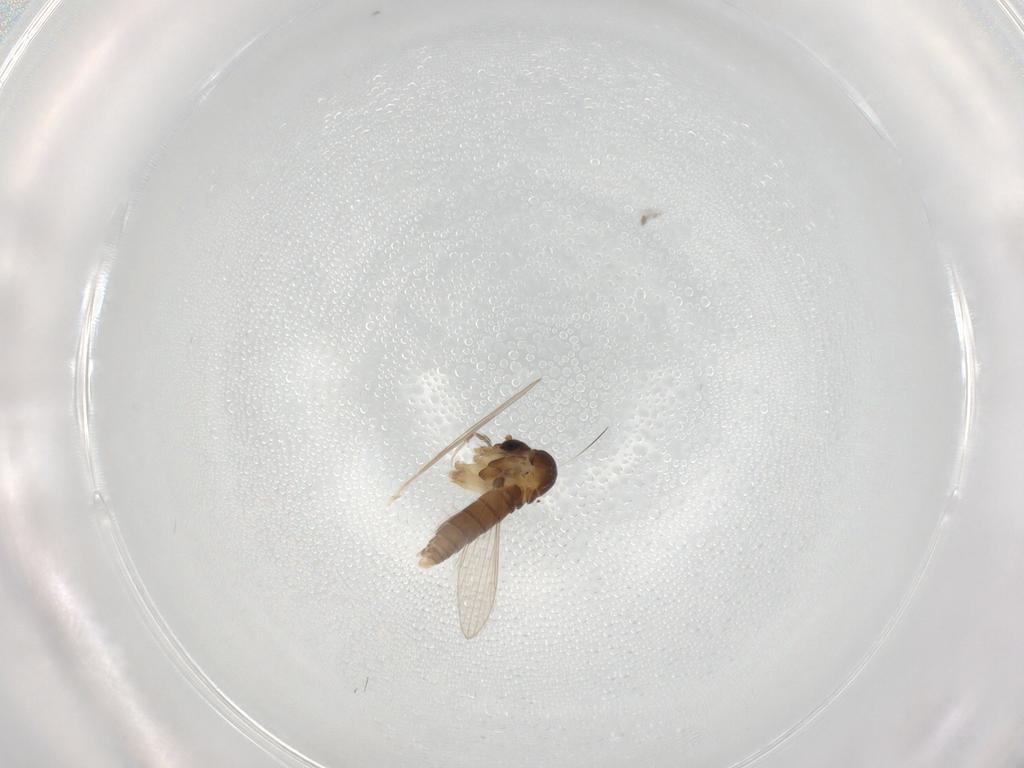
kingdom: Animalia
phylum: Arthropoda
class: Insecta
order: Diptera
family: Psychodidae
